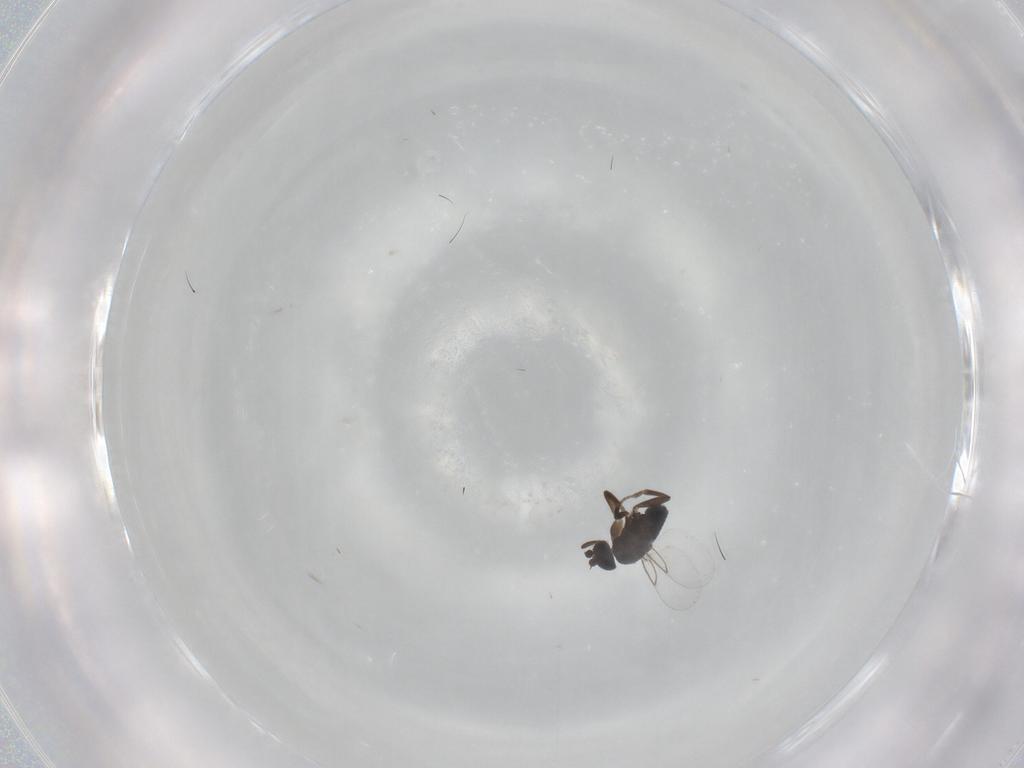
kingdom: Animalia
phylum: Arthropoda
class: Insecta
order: Diptera
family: Phoridae
